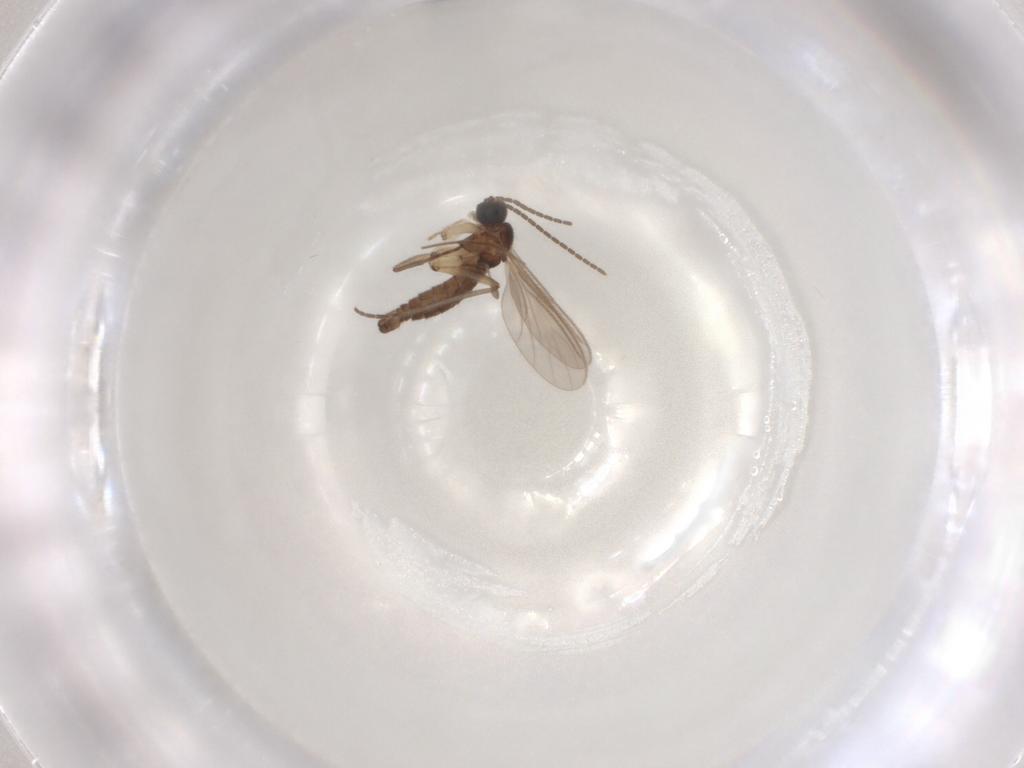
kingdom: Animalia
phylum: Arthropoda
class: Insecta
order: Diptera
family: Sciaridae
